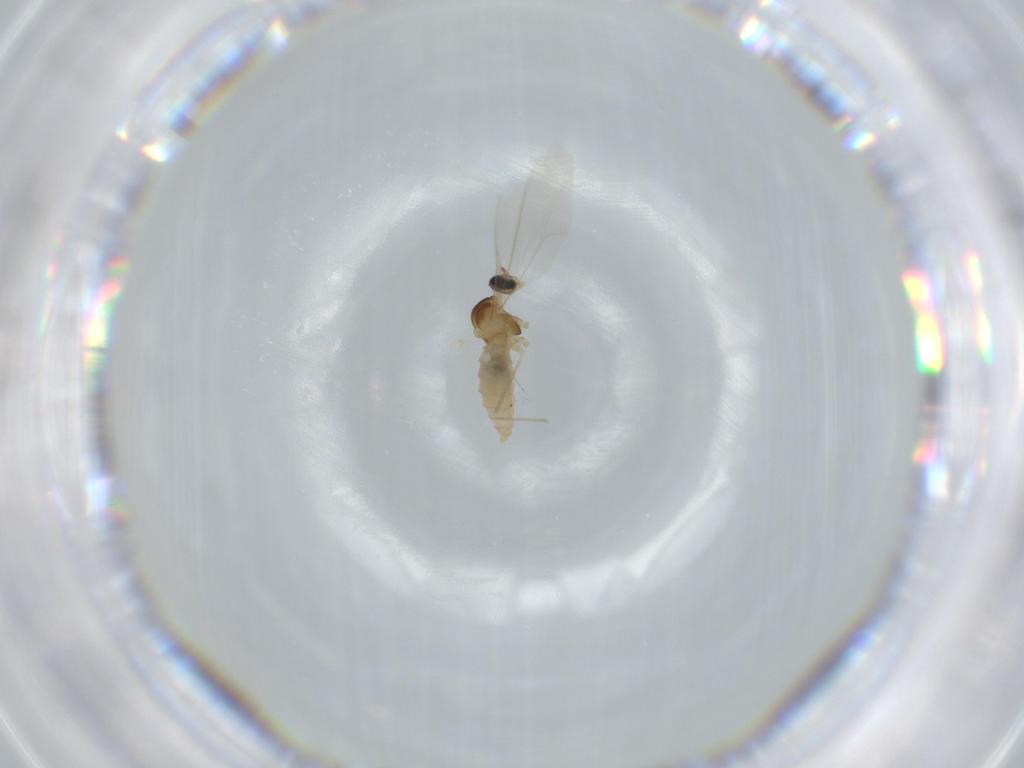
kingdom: Animalia
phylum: Arthropoda
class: Insecta
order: Diptera
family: Cecidomyiidae
